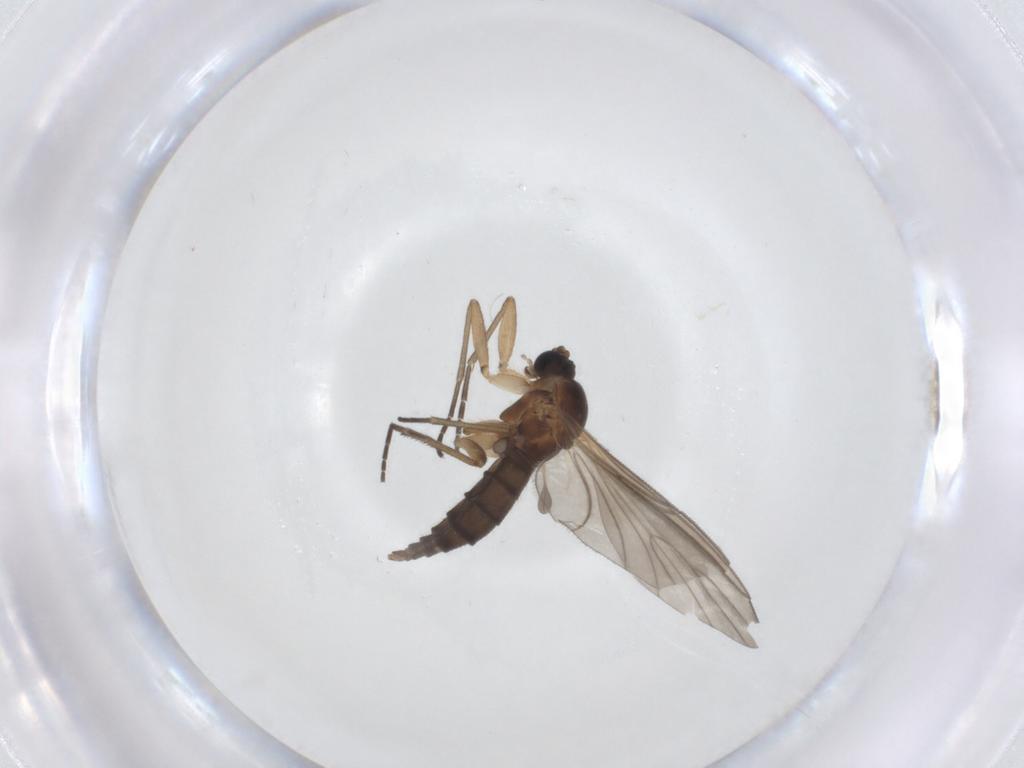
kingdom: Animalia
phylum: Arthropoda
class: Insecta
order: Diptera
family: Sciaridae
